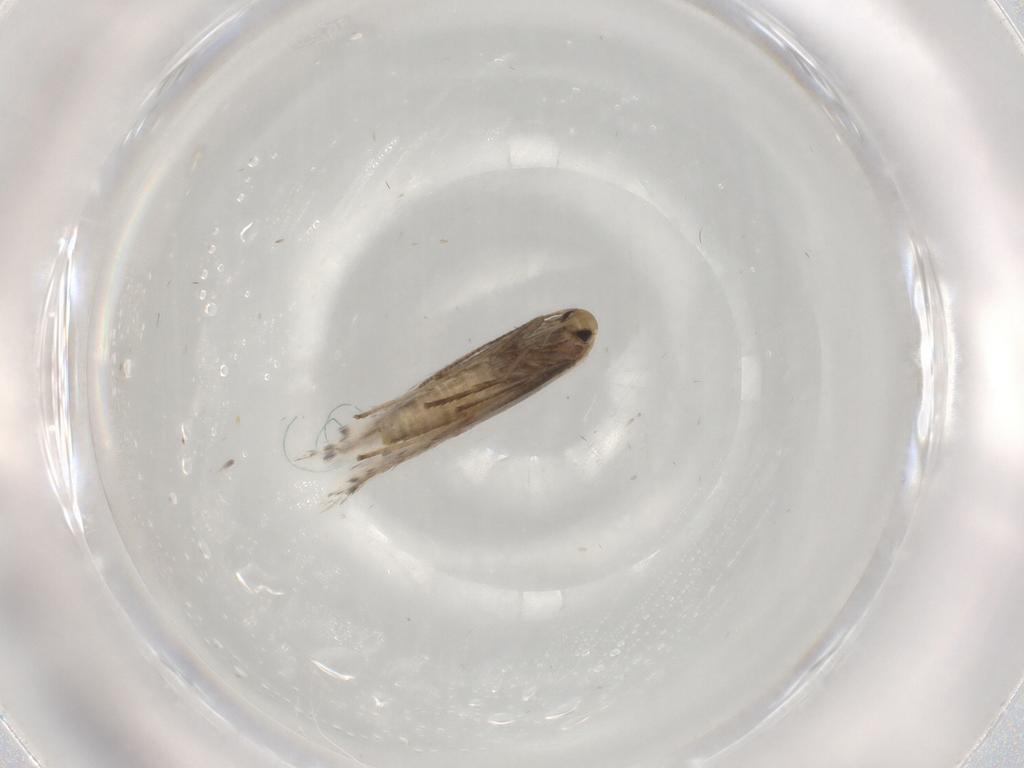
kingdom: Animalia
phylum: Arthropoda
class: Insecta
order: Lepidoptera
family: Gracillariidae
